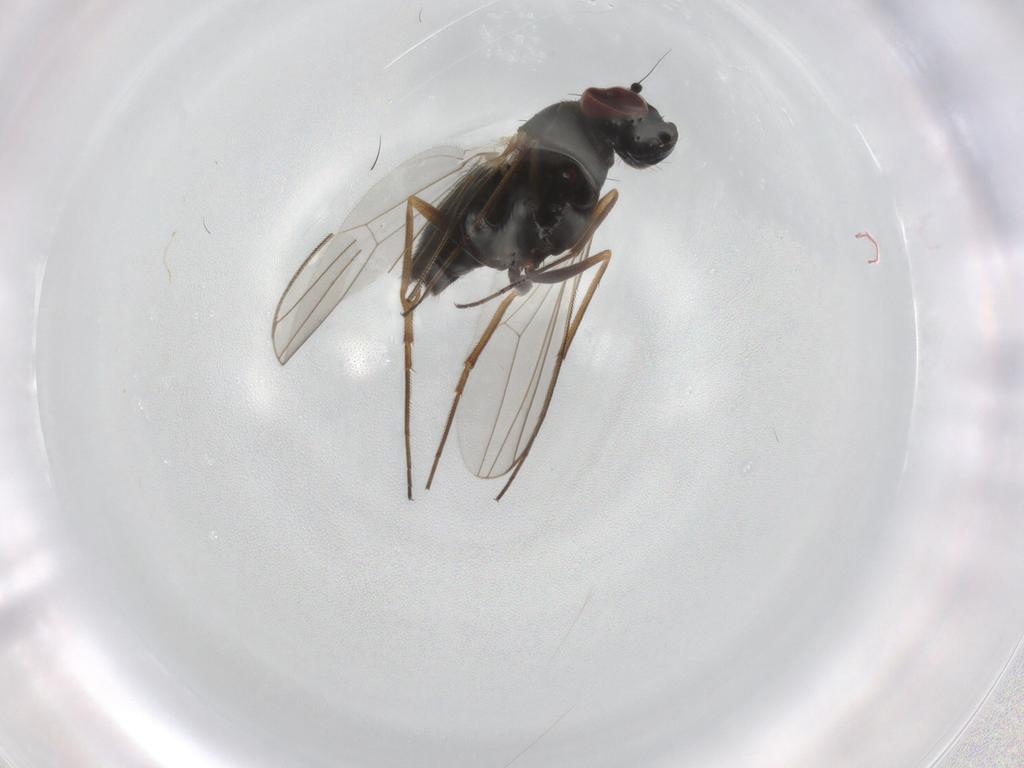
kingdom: Animalia
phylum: Arthropoda
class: Insecta
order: Diptera
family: Dolichopodidae
